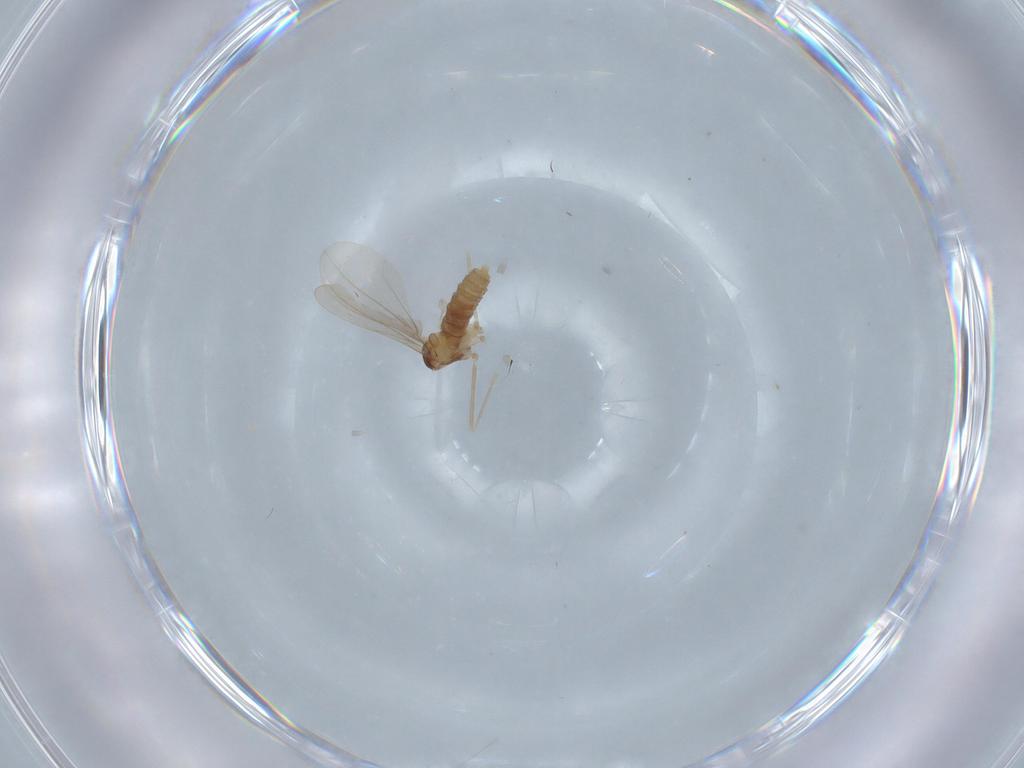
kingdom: Animalia
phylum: Arthropoda
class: Insecta
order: Diptera
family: Cecidomyiidae
